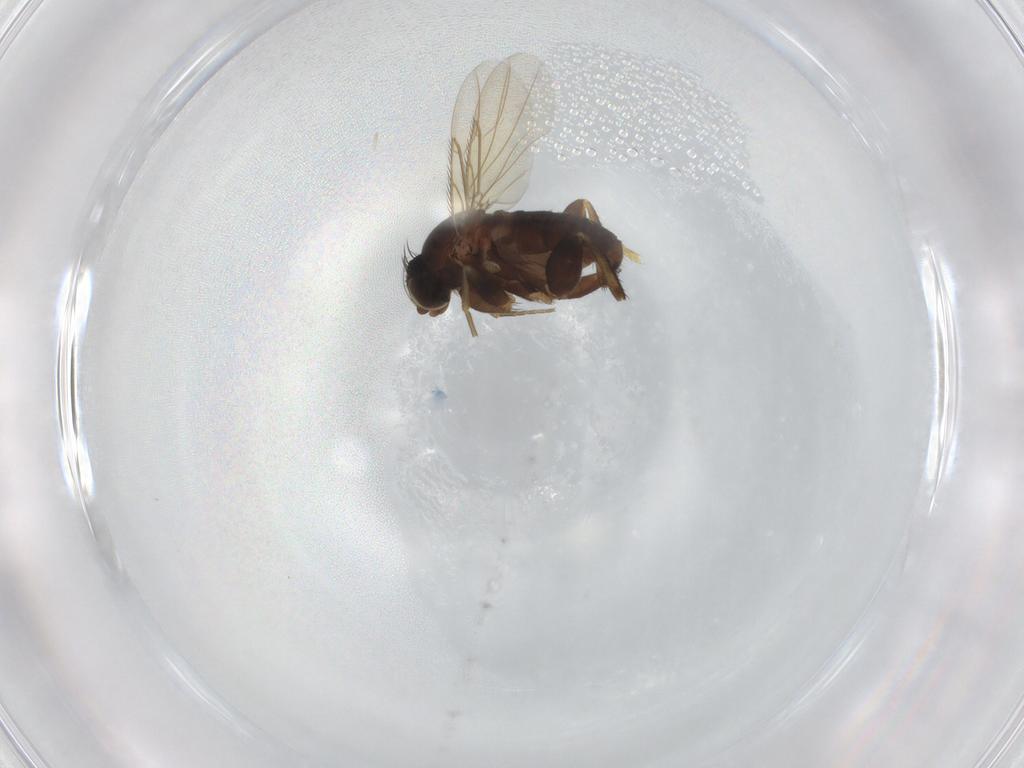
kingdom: Animalia
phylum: Arthropoda
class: Insecta
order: Diptera
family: Phoridae
